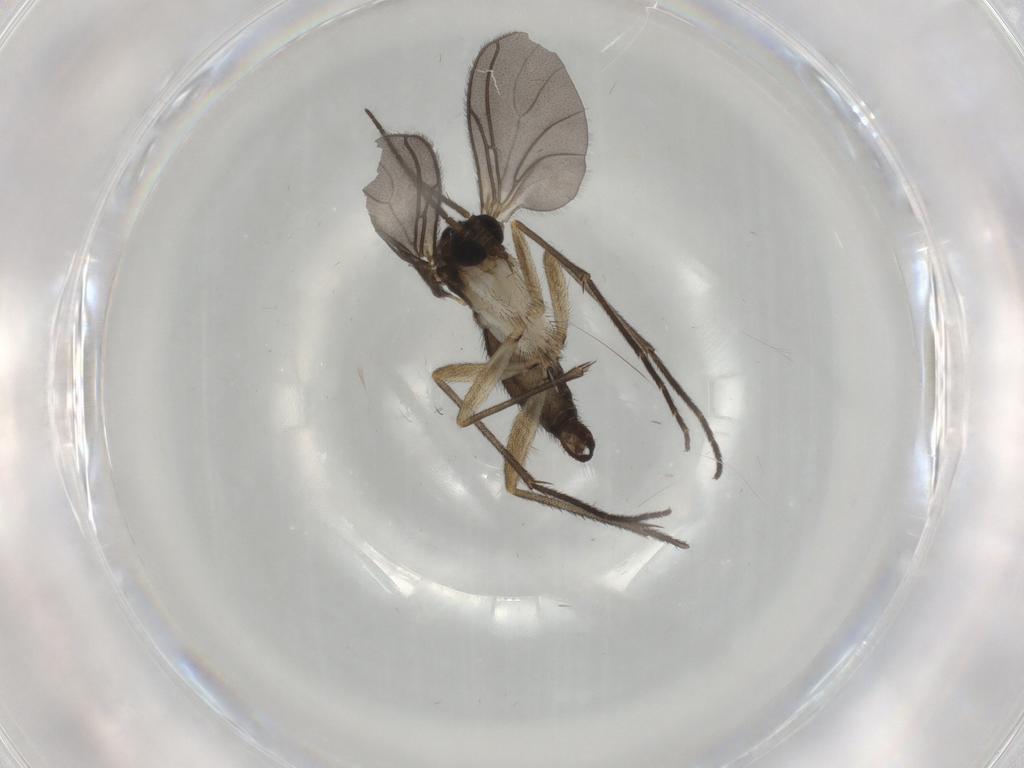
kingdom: Animalia
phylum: Arthropoda
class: Insecta
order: Diptera
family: Sciaridae
